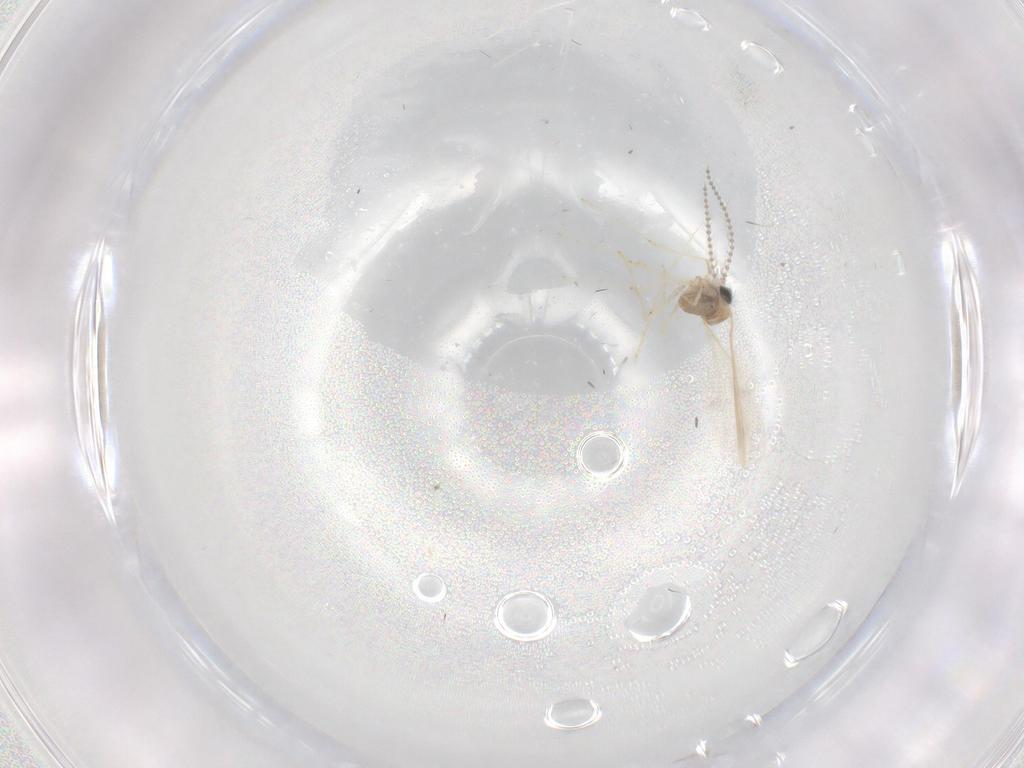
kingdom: Animalia
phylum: Arthropoda
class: Insecta
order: Diptera
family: Cecidomyiidae
